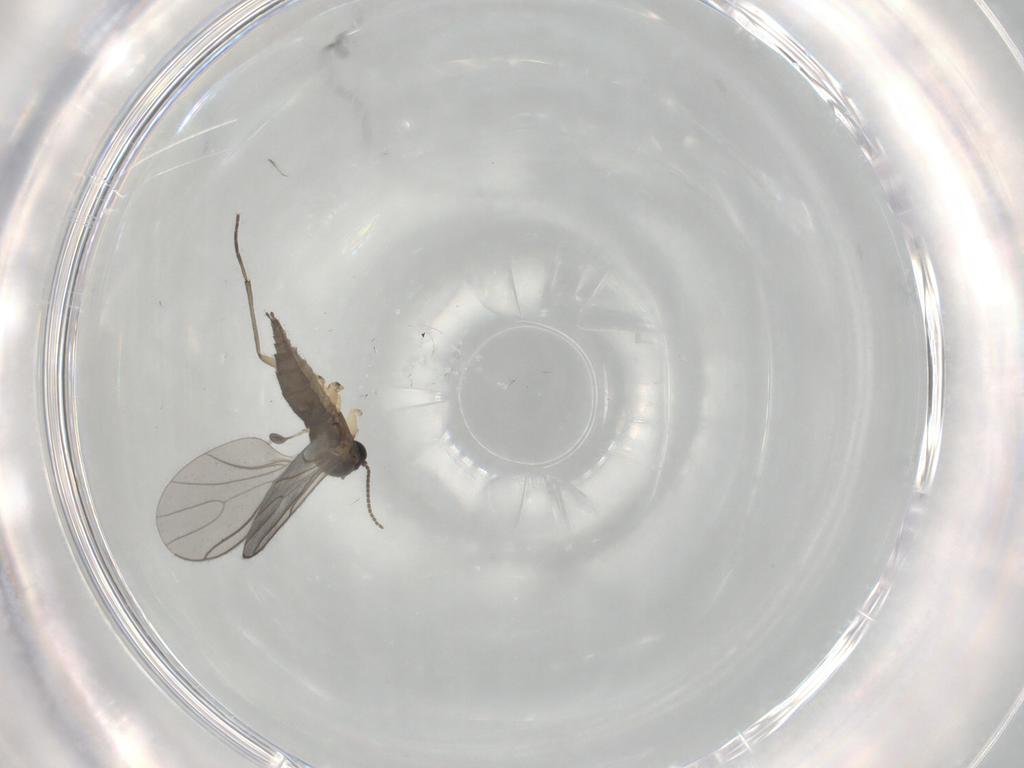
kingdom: Animalia
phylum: Arthropoda
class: Insecta
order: Diptera
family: Sciaridae
